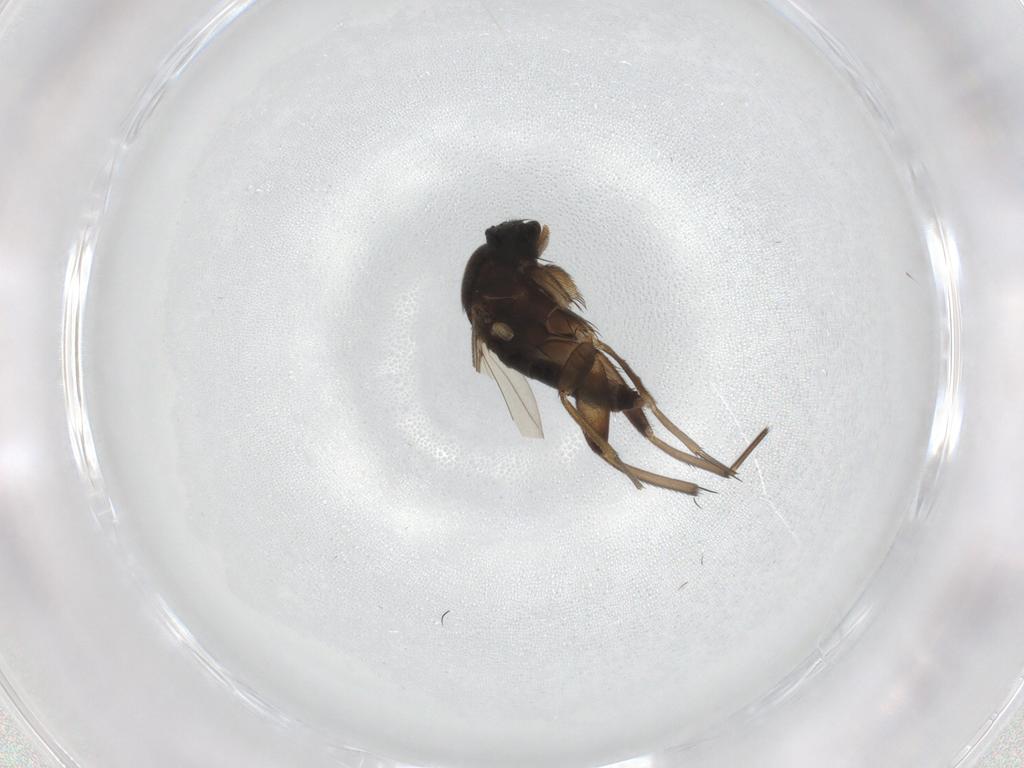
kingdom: Animalia
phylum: Arthropoda
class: Insecta
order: Diptera
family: Phoridae
